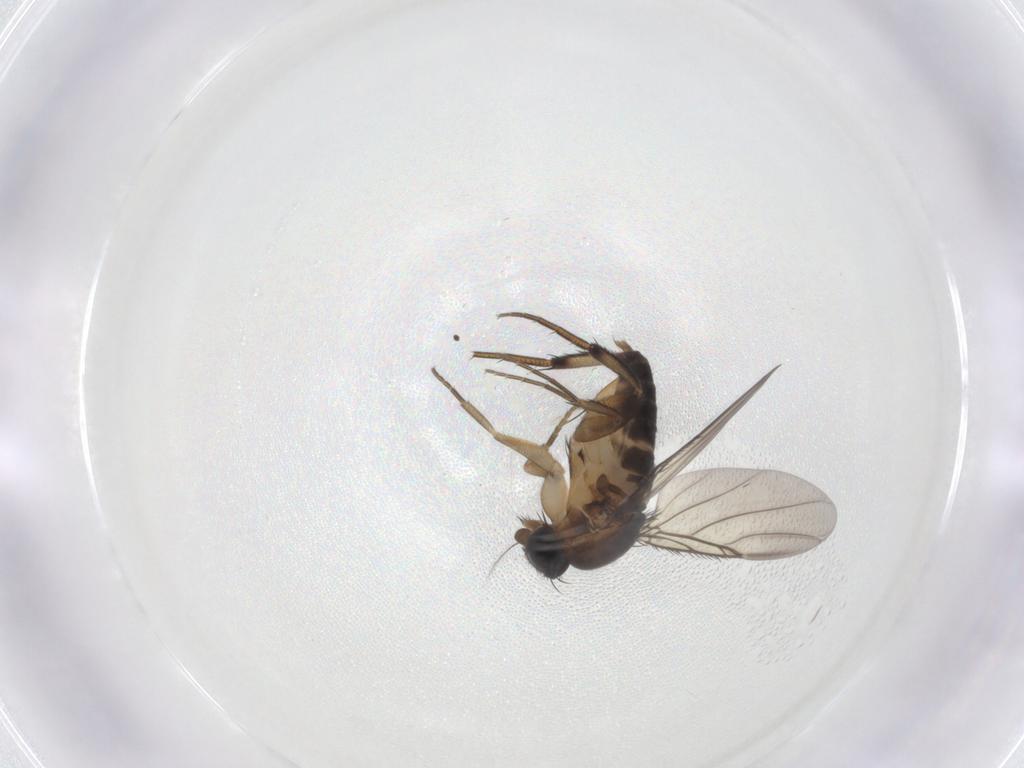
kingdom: Animalia
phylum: Arthropoda
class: Insecta
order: Diptera
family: Phoridae
